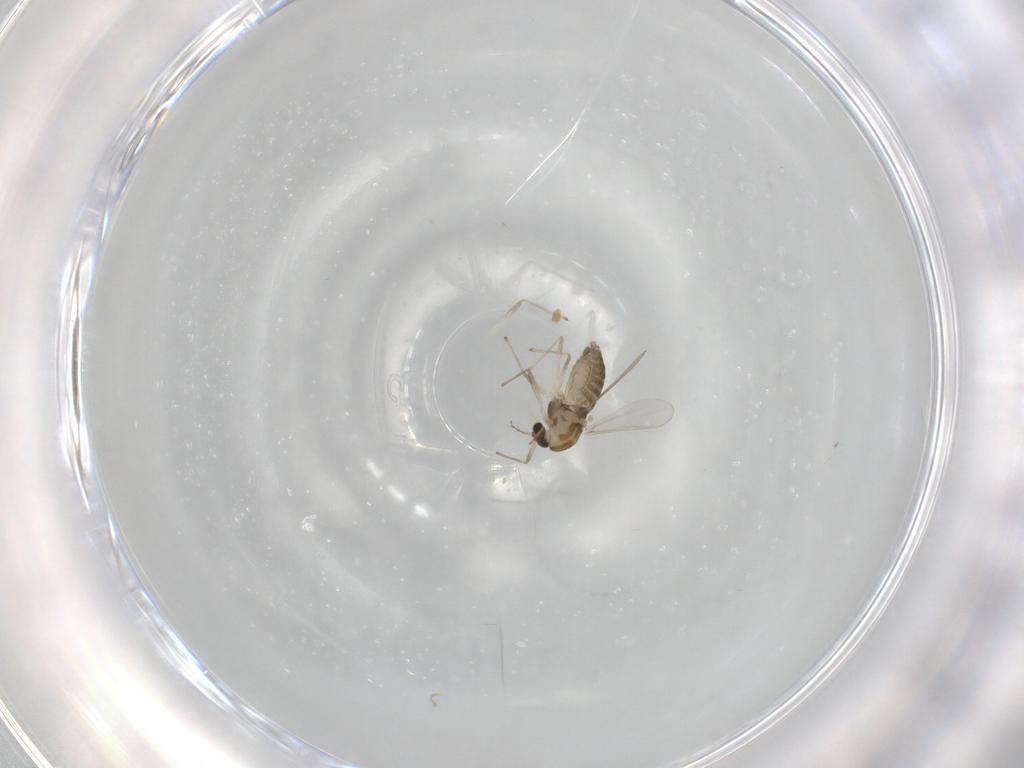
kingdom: Animalia
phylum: Arthropoda
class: Insecta
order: Diptera
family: Chironomidae
